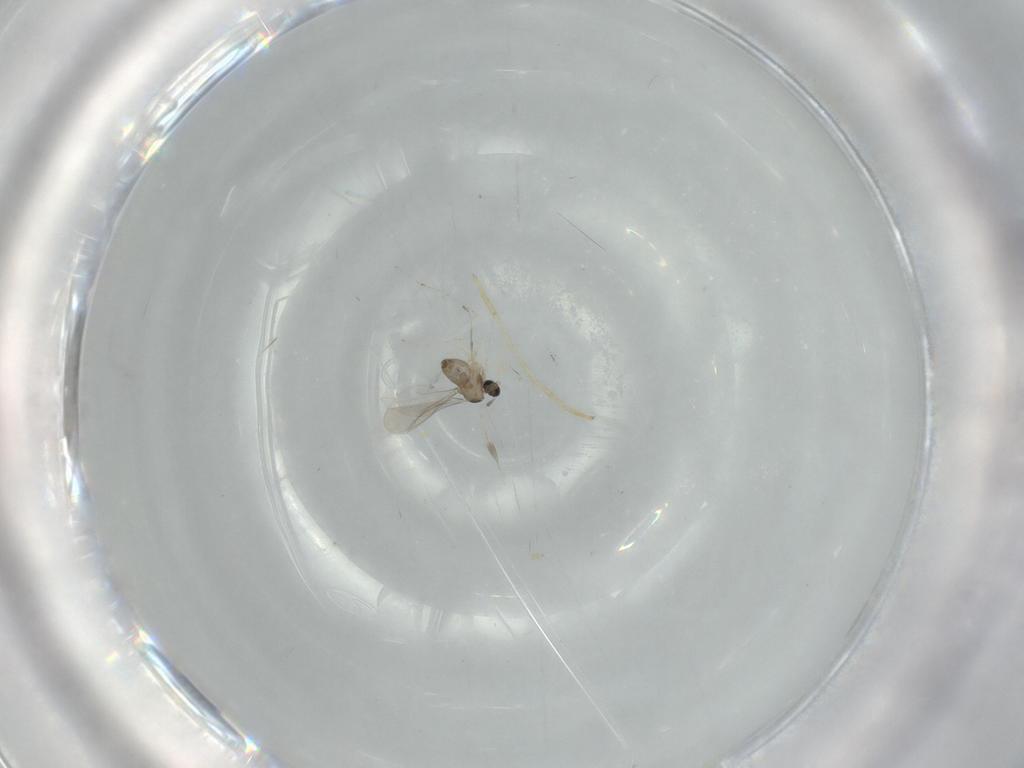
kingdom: Animalia
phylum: Arthropoda
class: Insecta
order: Diptera
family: Cecidomyiidae
